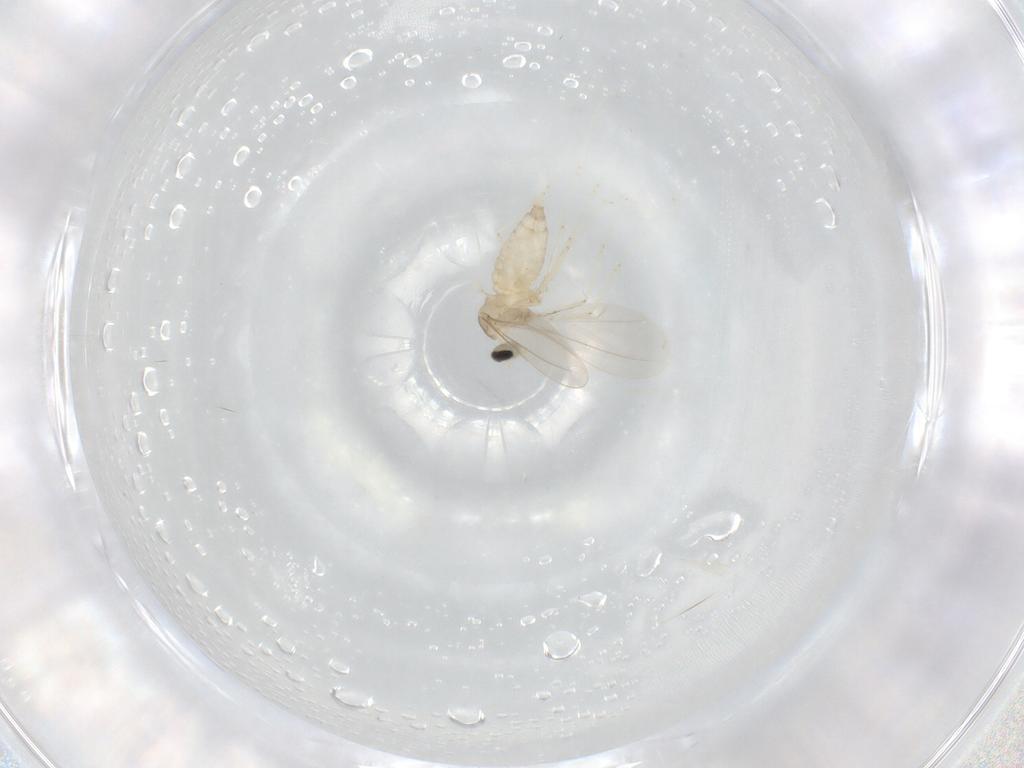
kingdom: Animalia
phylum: Arthropoda
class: Insecta
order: Diptera
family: Cecidomyiidae
